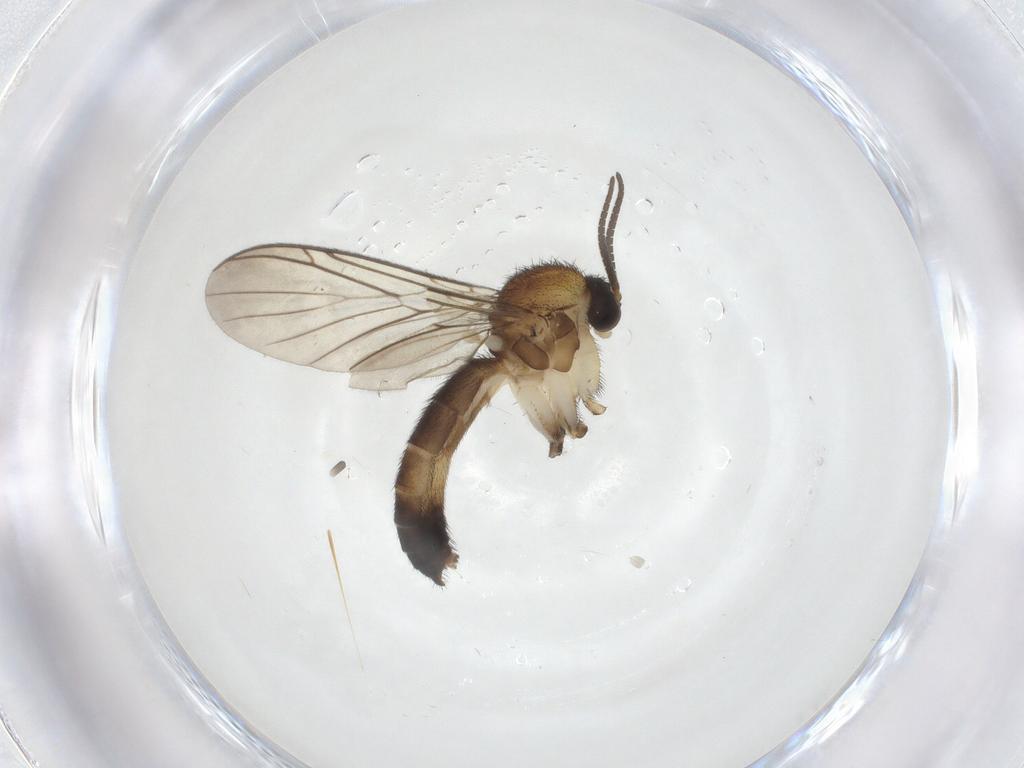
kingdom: Animalia
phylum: Arthropoda
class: Insecta
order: Diptera
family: Keroplatidae
